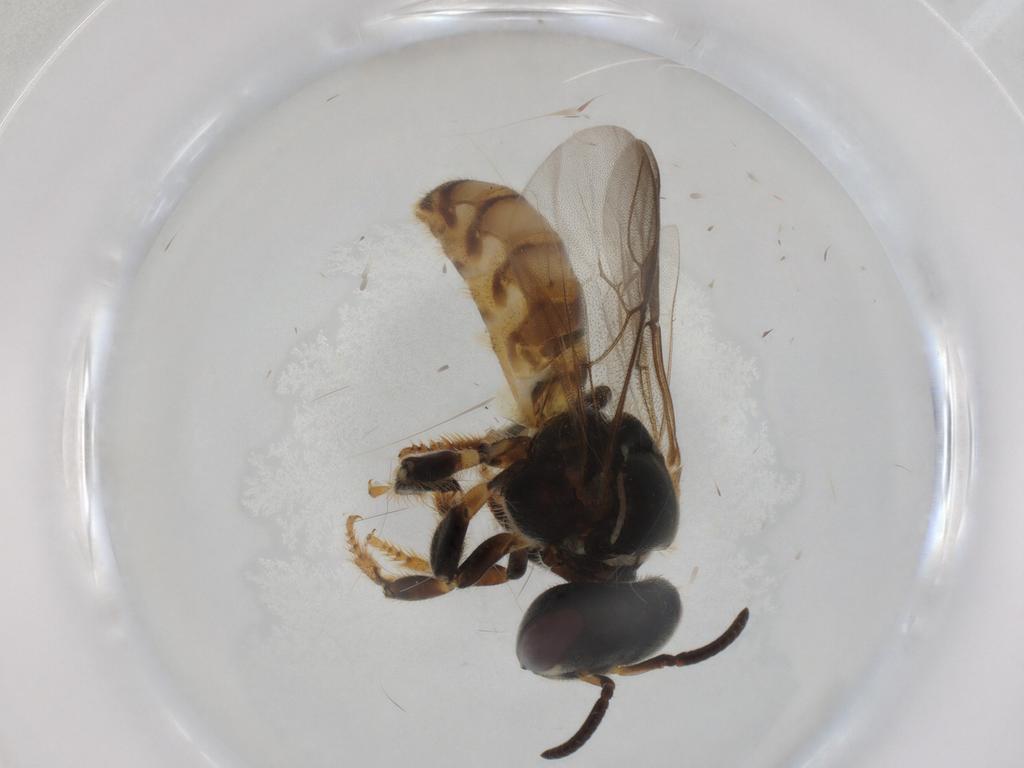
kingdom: Animalia
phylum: Arthropoda
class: Insecta
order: Hymenoptera
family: Apidae
